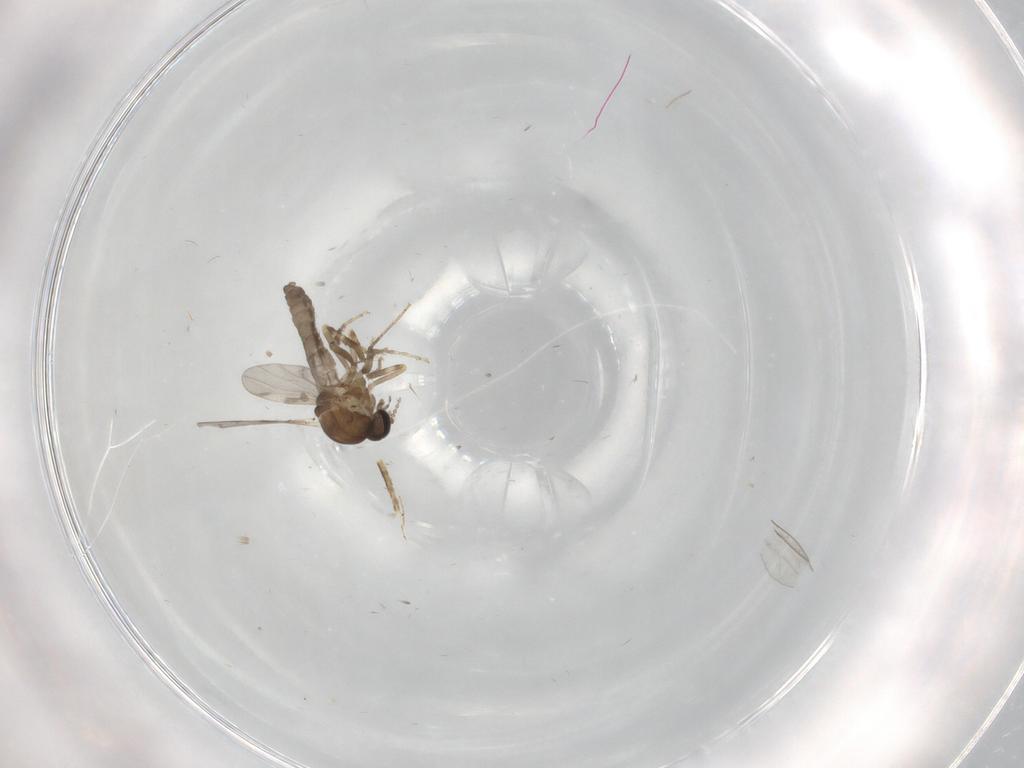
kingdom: Animalia
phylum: Arthropoda
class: Insecta
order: Diptera
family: Ceratopogonidae
